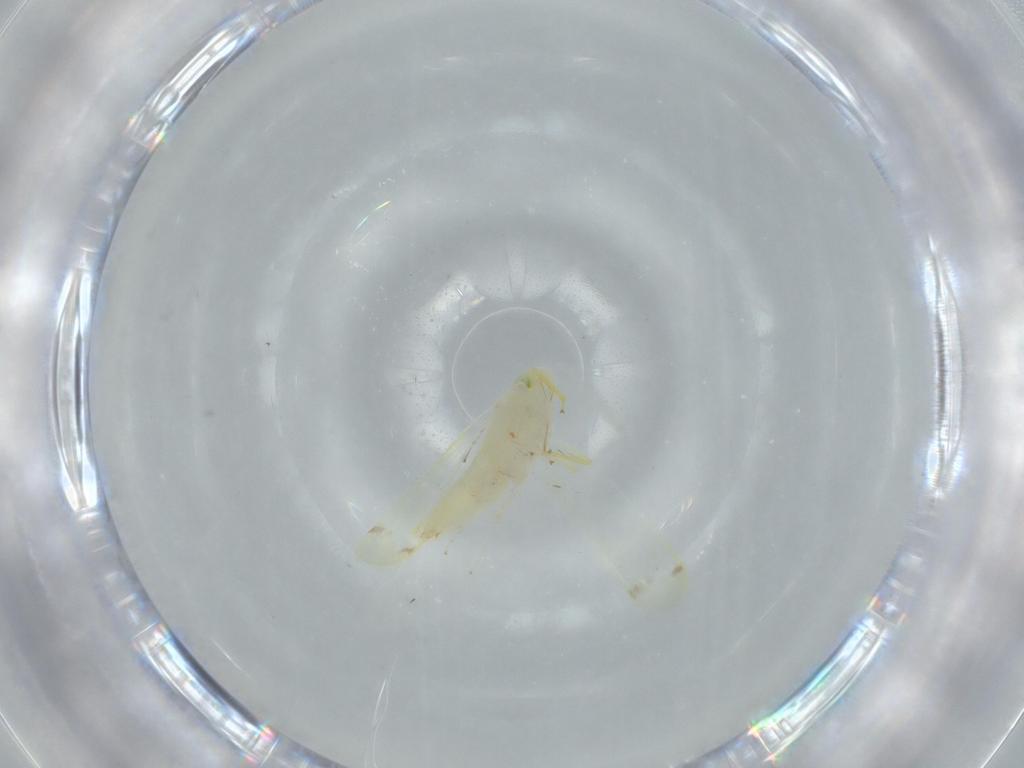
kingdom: Animalia
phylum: Arthropoda
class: Insecta
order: Hemiptera
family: Cicadellidae
